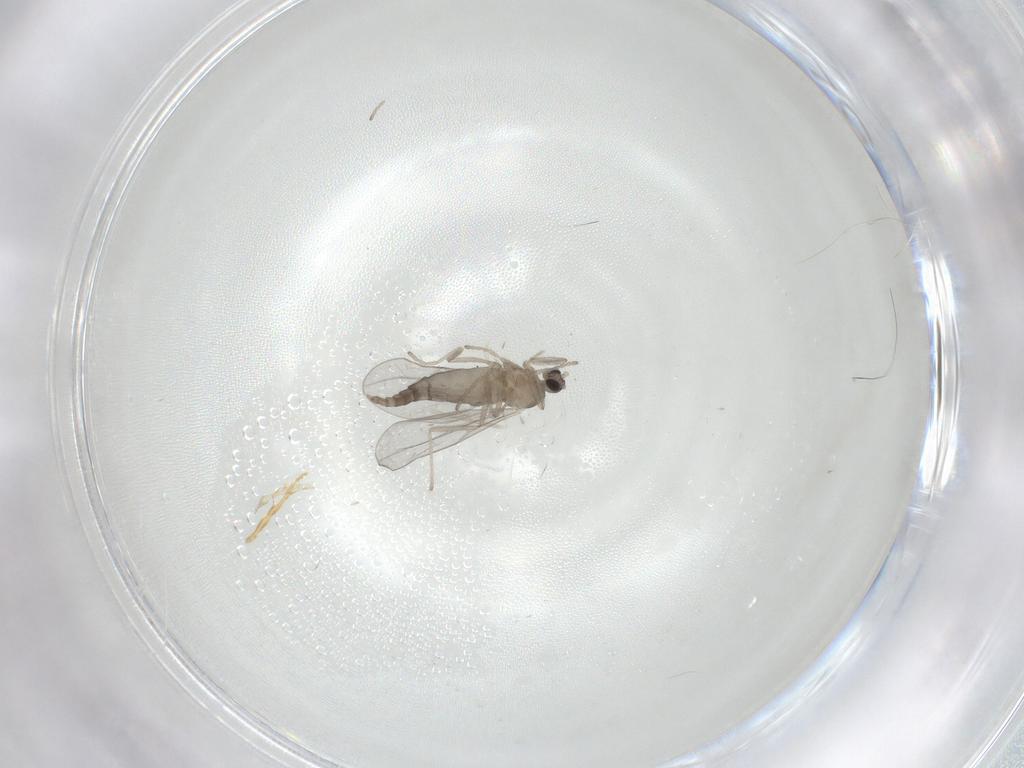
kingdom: Animalia
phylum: Arthropoda
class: Insecta
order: Diptera
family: Cecidomyiidae
